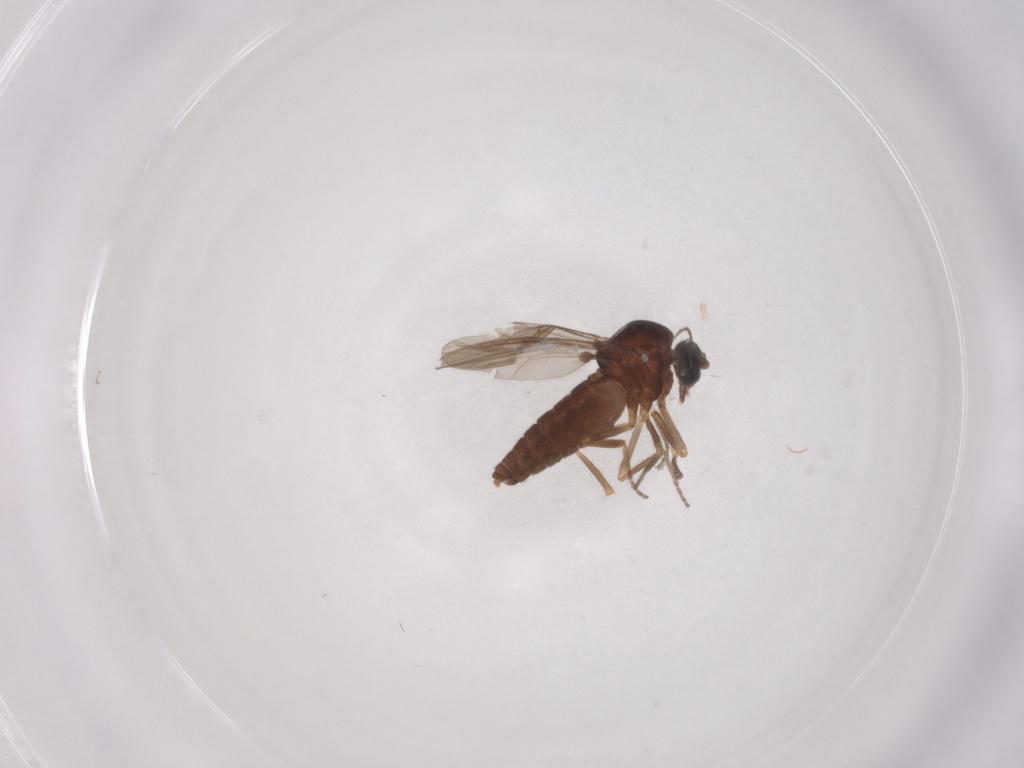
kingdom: Animalia
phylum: Arthropoda
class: Insecta
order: Diptera
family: Ceratopogonidae
